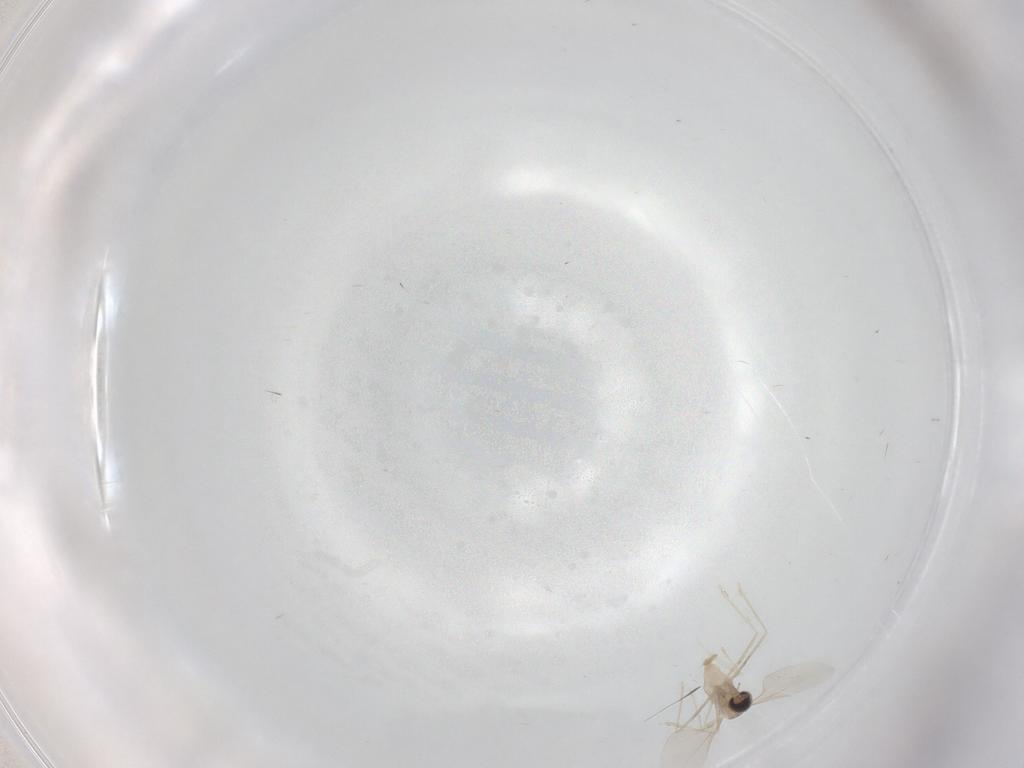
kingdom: Animalia
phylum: Arthropoda
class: Insecta
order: Diptera
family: Cecidomyiidae
